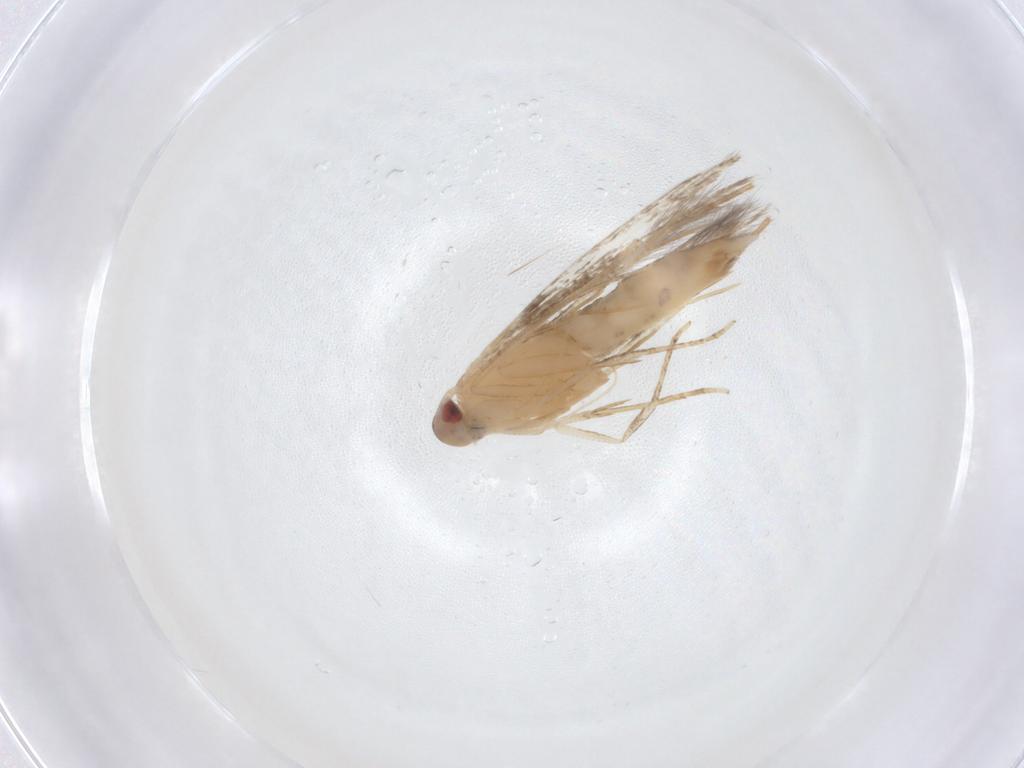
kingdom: Animalia
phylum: Arthropoda
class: Insecta
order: Lepidoptera
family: Cosmopterigidae
